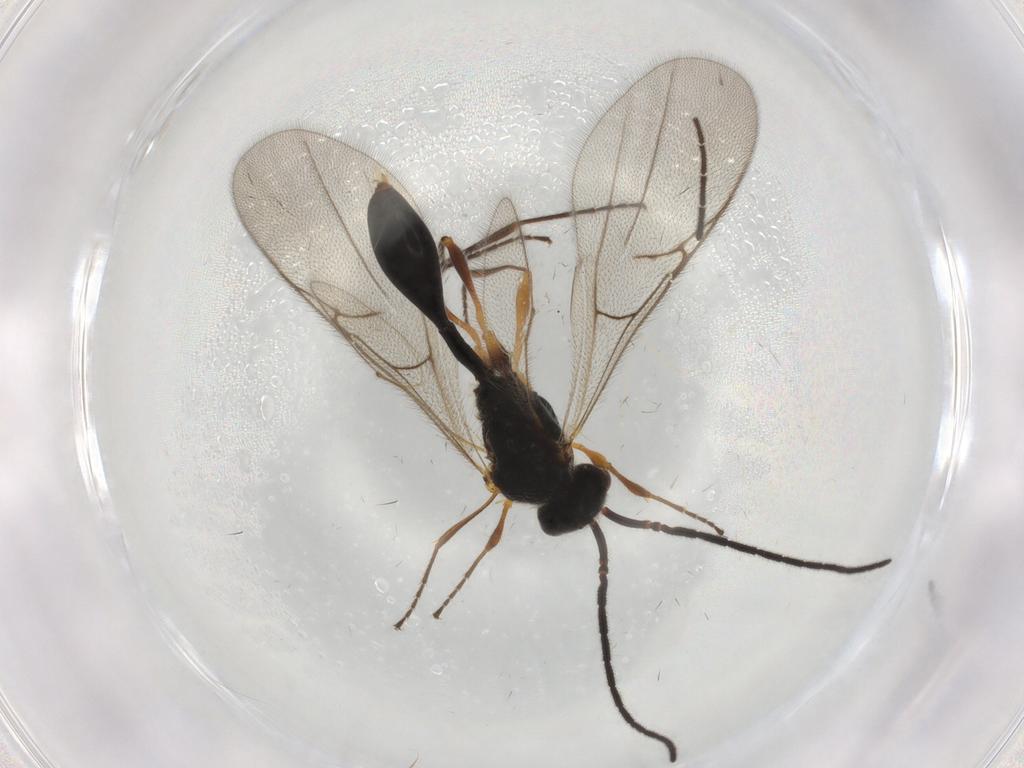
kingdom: Animalia
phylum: Arthropoda
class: Insecta
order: Hymenoptera
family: Diapriidae
